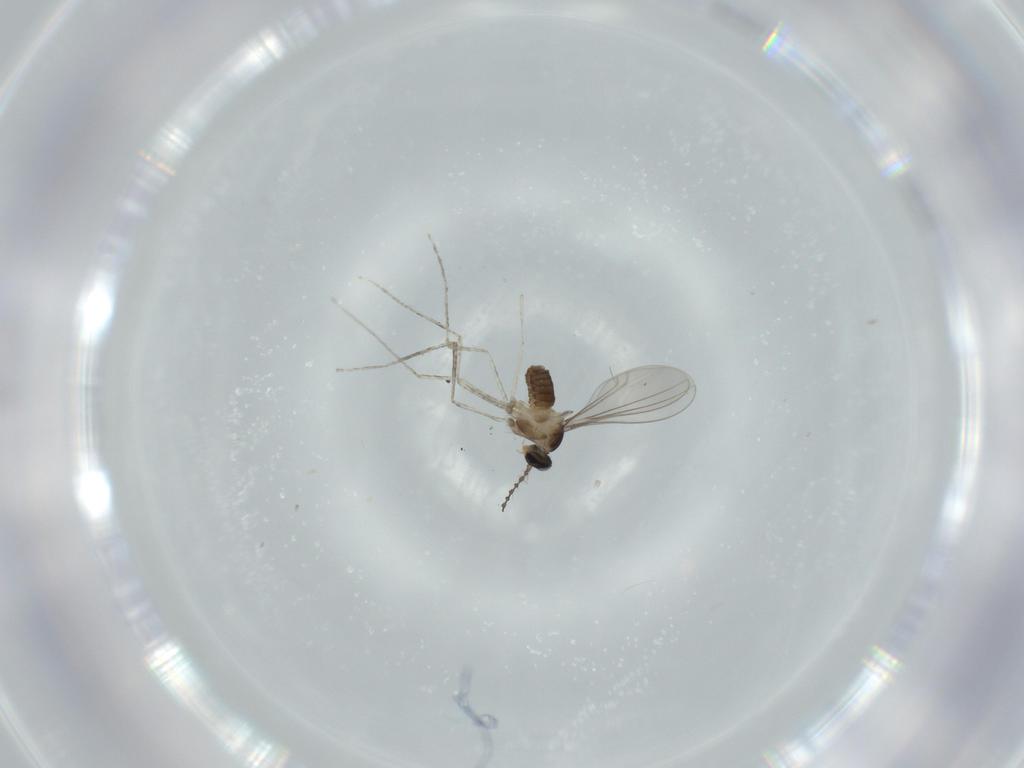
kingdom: Animalia
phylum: Arthropoda
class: Insecta
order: Diptera
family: Cecidomyiidae
